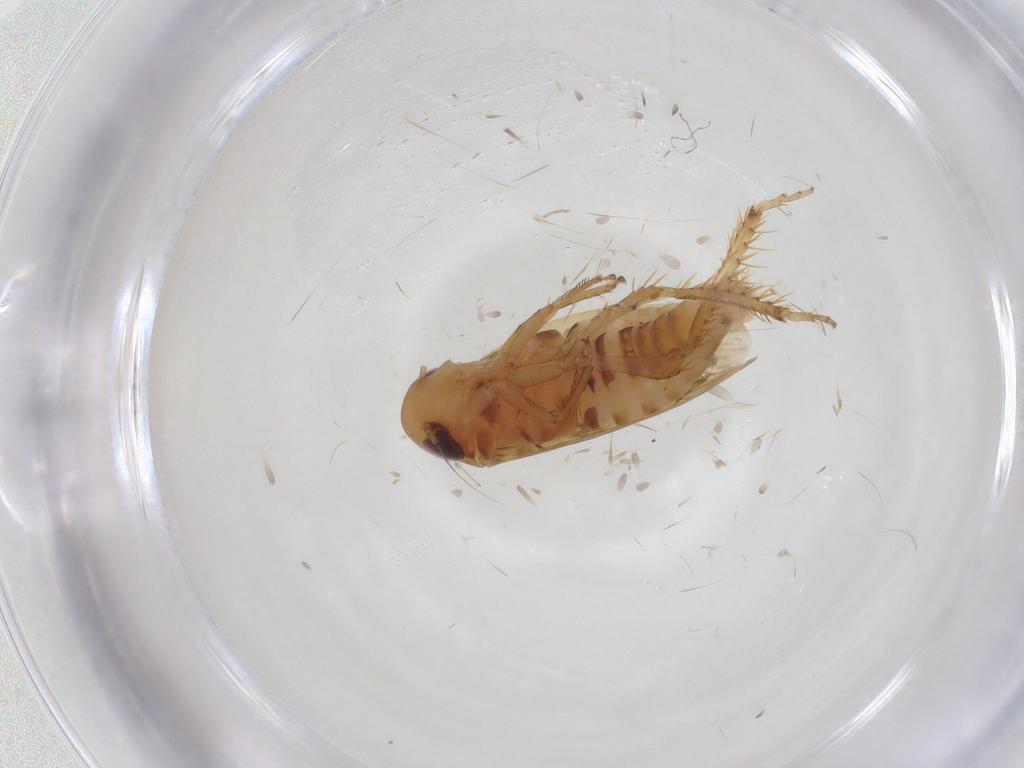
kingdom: Animalia
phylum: Arthropoda
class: Insecta
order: Hemiptera
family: Cicadellidae
